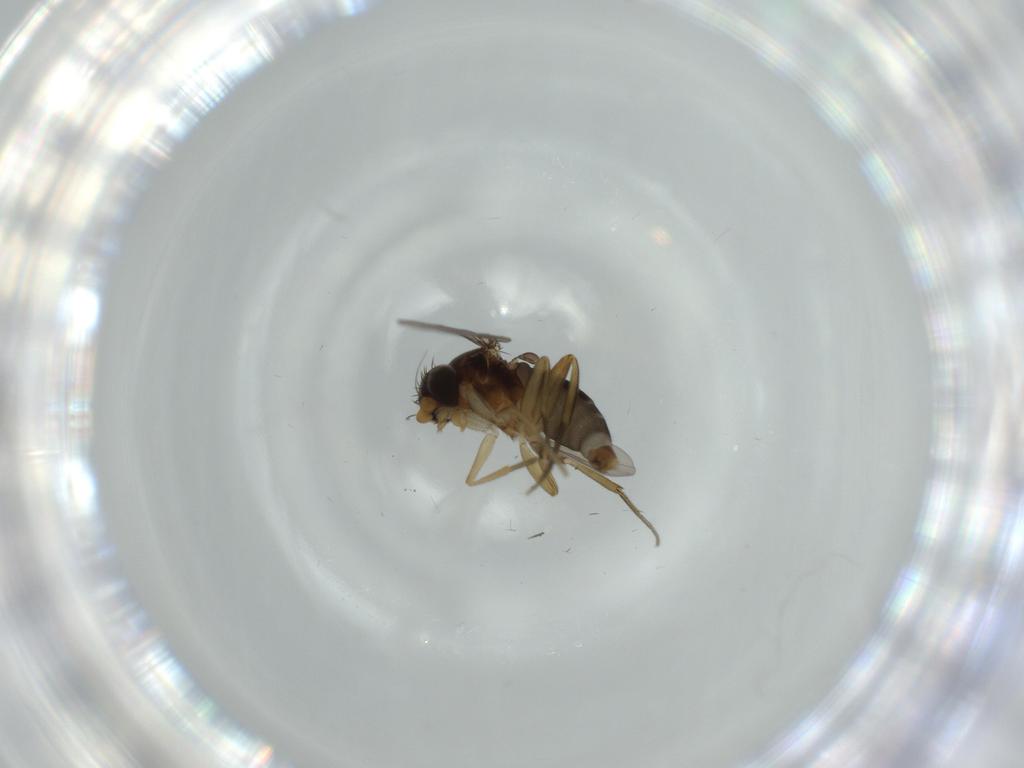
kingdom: Animalia
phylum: Arthropoda
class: Insecta
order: Diptera
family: Phoridae
